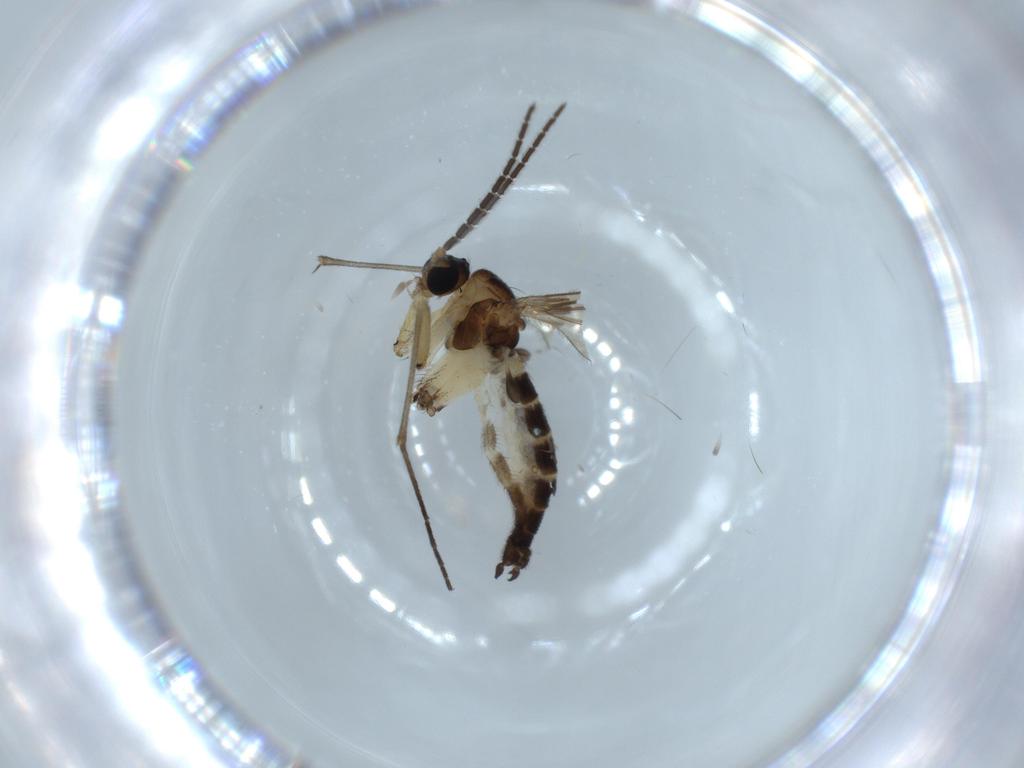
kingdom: Animalia
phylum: Arthropoda
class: Insecta
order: Diptera
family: Sciaridae
